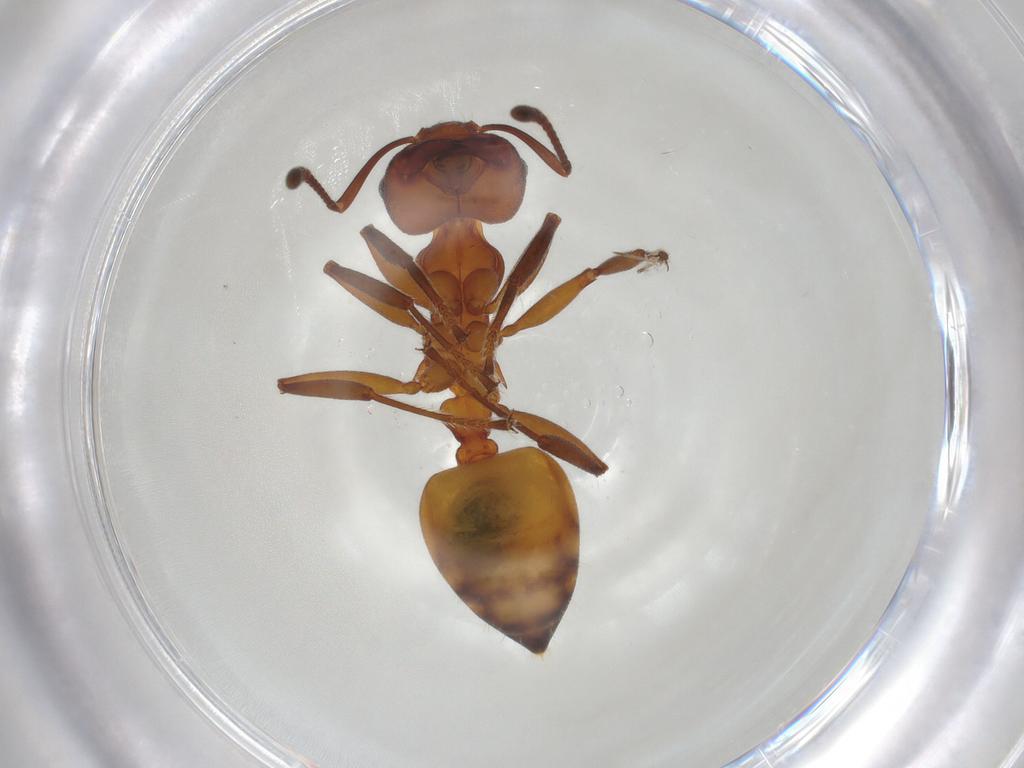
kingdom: Animalia
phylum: Arthropoda
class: Insecta
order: Hymenoptera
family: Formicidae
